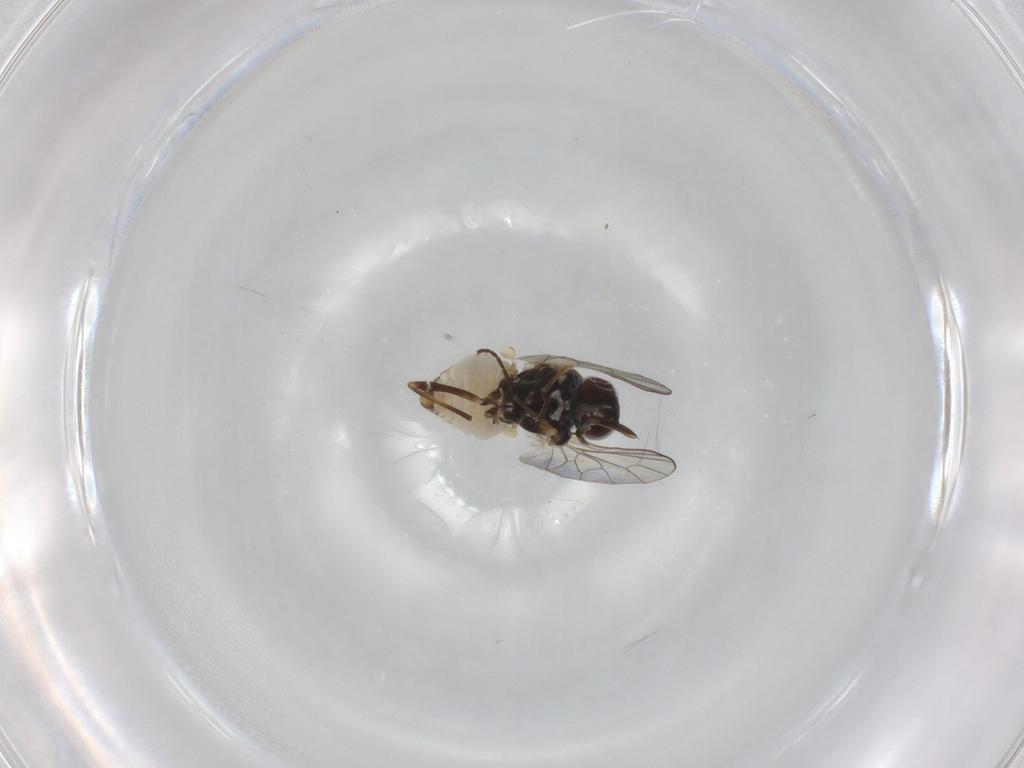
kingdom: Animalia
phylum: Arthropoda
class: Insecta
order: Diptera
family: Bombyliidae
